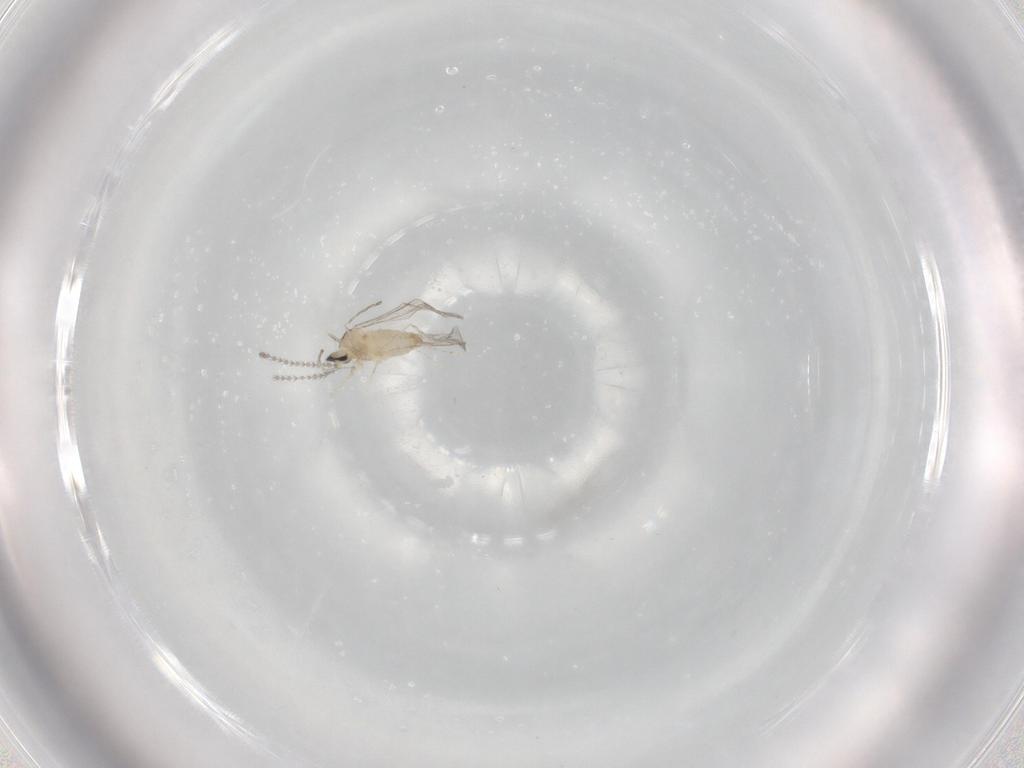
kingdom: Animalia
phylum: Arthropoda
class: Insecta
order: Diptera
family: Cecidomyiidae
